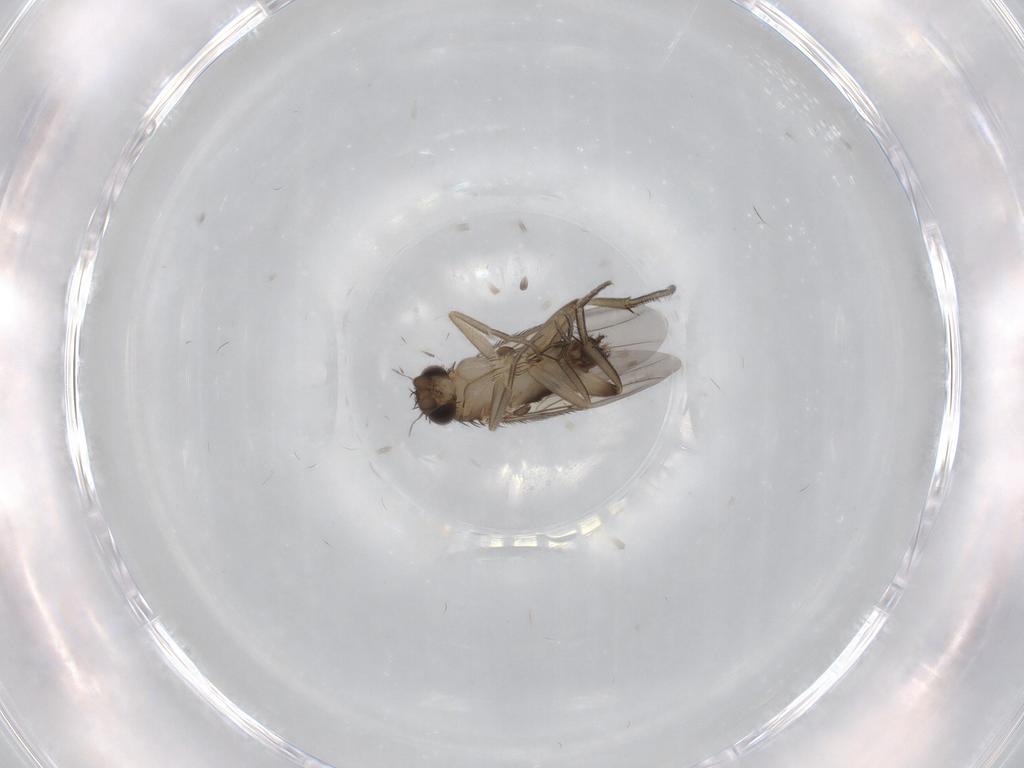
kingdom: Animalia
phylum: Arthropoda
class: Insecta
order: Diptera
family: Phoridae
